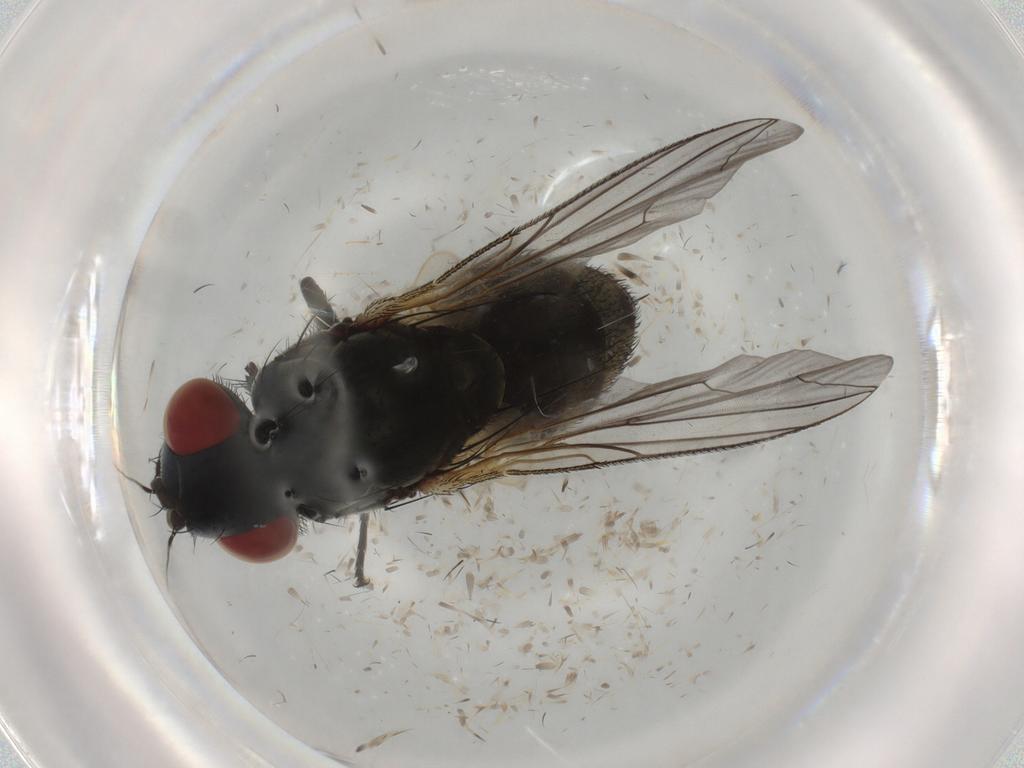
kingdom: Animalia
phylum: Arthropoda
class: Insecta
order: Diptera
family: Sarcophagidae
